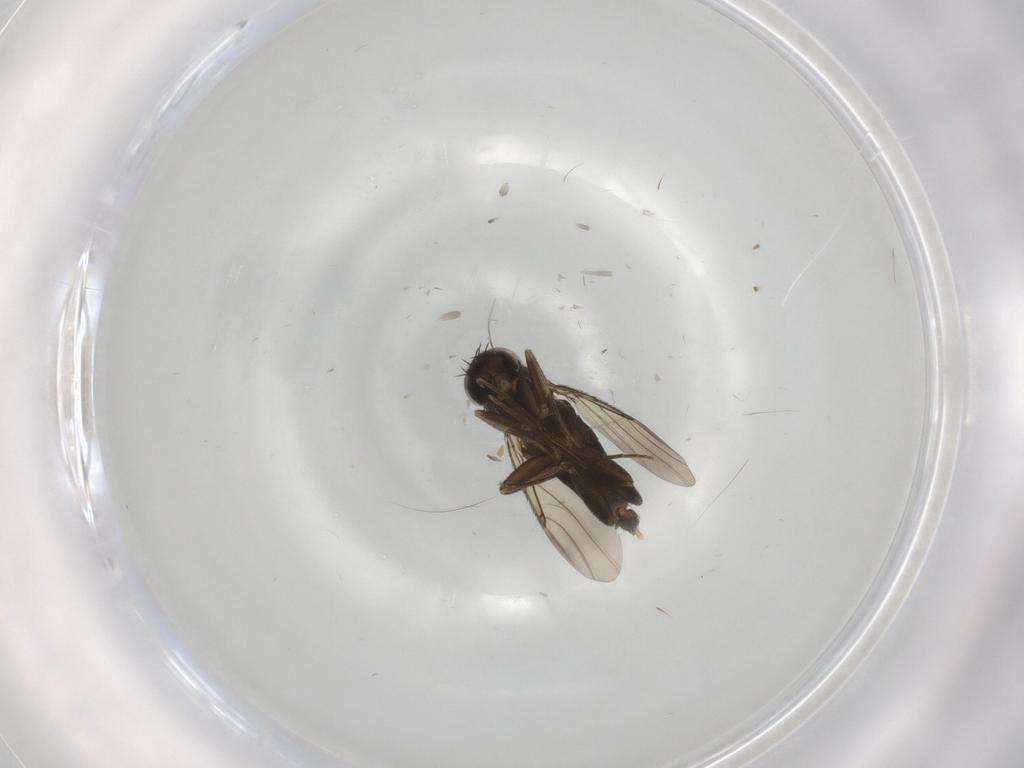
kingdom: Animalia
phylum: Arthropoda
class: Insecta
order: Diptera
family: Phoridae
